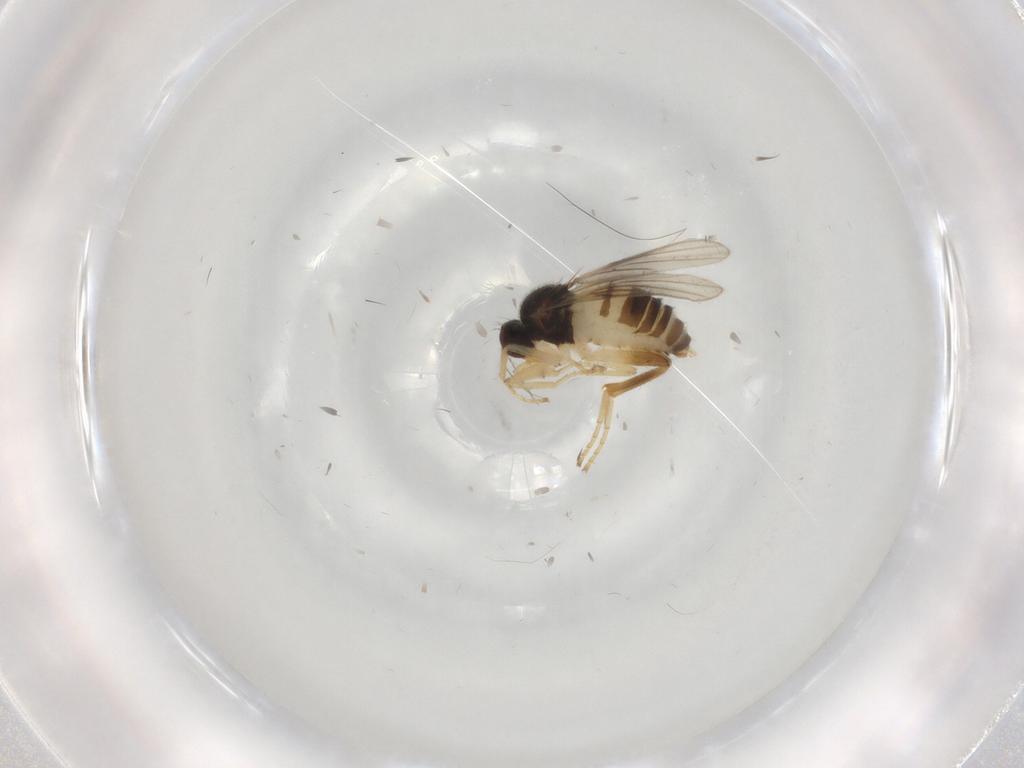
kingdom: Animalia
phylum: Arthropoda
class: Insecta
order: Diptera
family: Hybotidae
